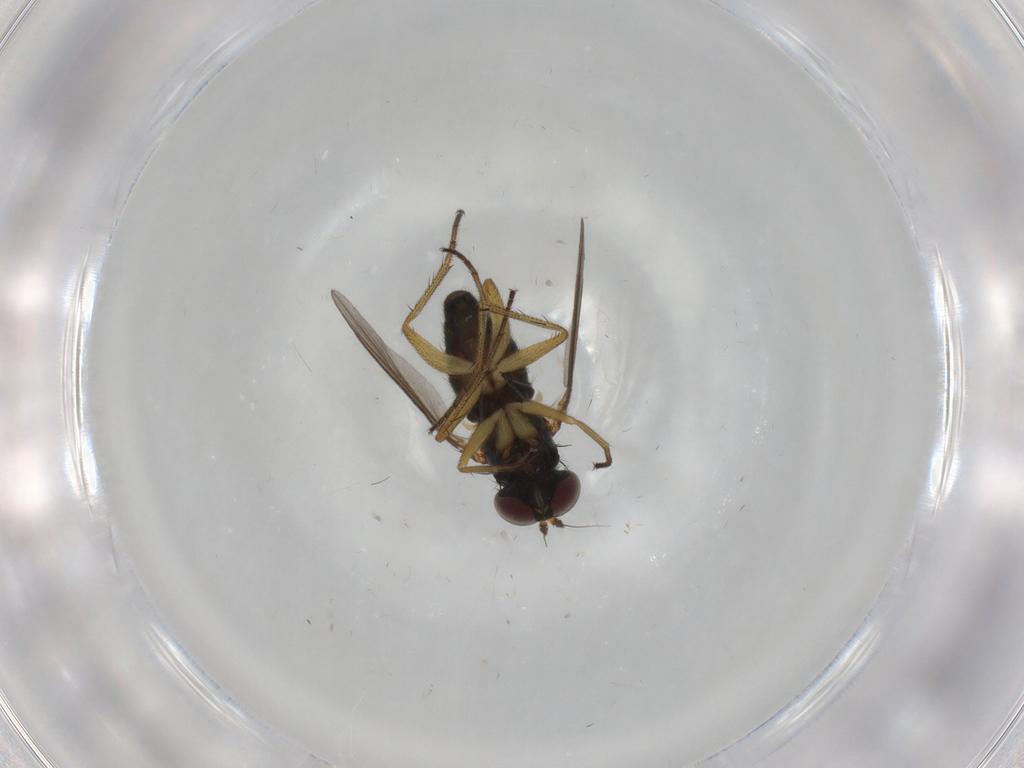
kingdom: Animalia
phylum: Arthropoda
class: Insecta
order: Diptera
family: Dolichopodidae
